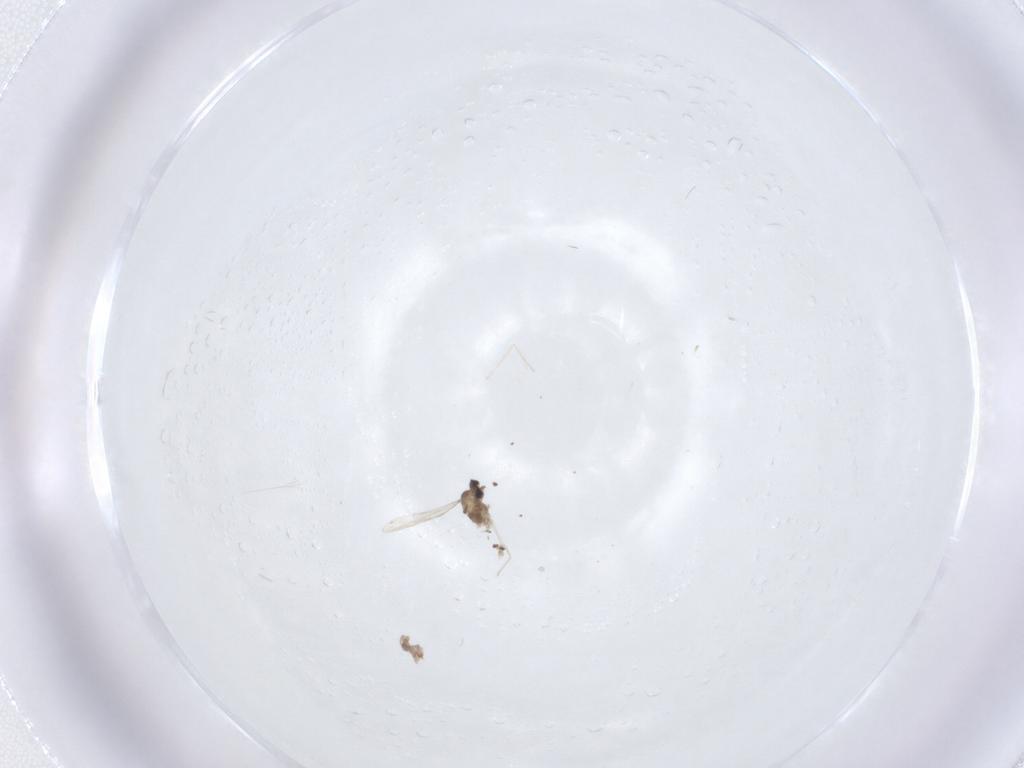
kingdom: Animalia
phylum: Arthropoda
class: Insecta
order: Diptera
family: Cecidomyiidae
